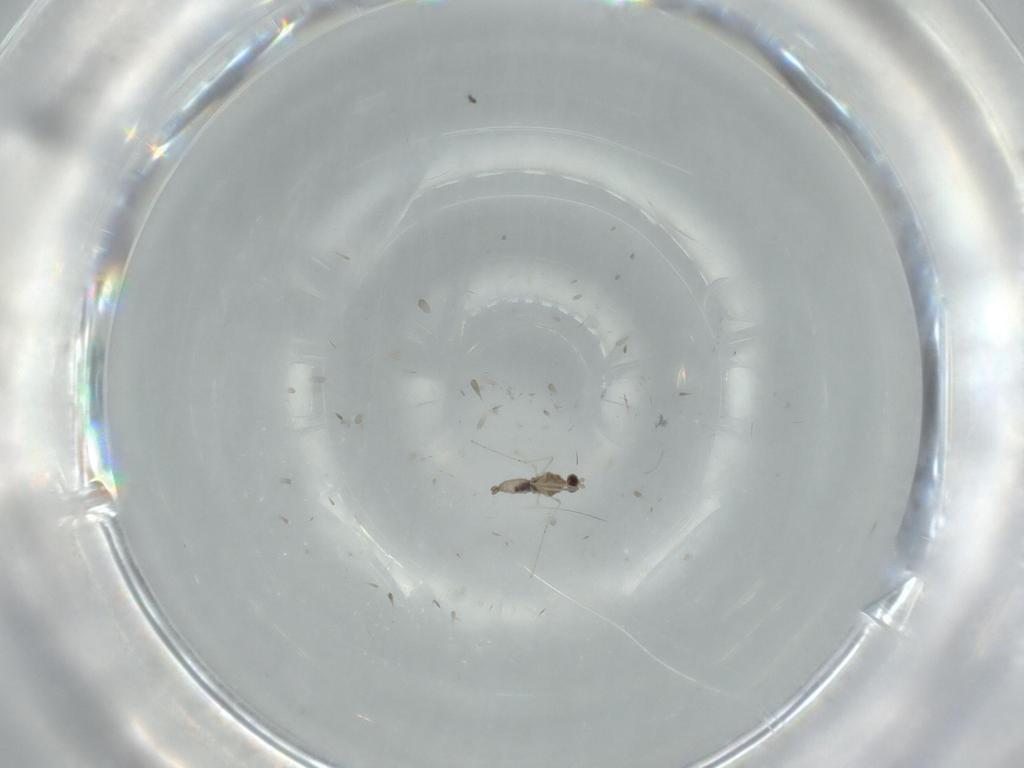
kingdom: Animalia
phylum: Arthropoda
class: Insecta
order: Diptera
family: Cecidomyiidae
